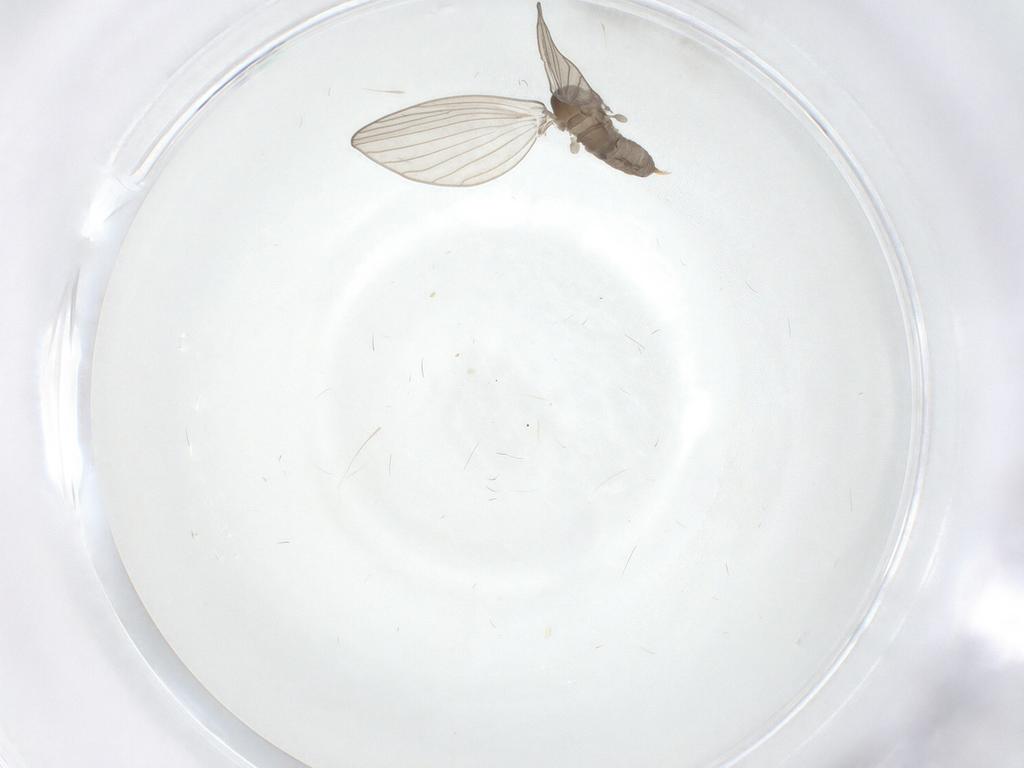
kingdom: Animalia
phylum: Arthropoda
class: Insecta
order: Diptera
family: Psychodidae
